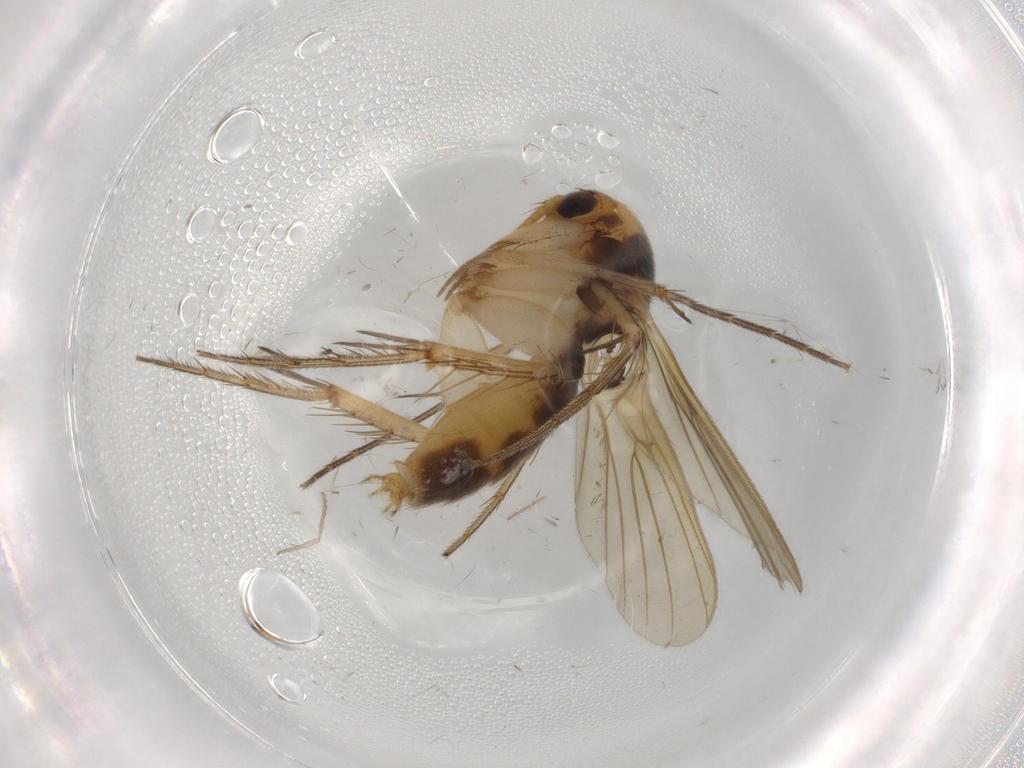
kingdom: Animalia
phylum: Arthropoda
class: Insecta
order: Diptera
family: Mycetophilidae
